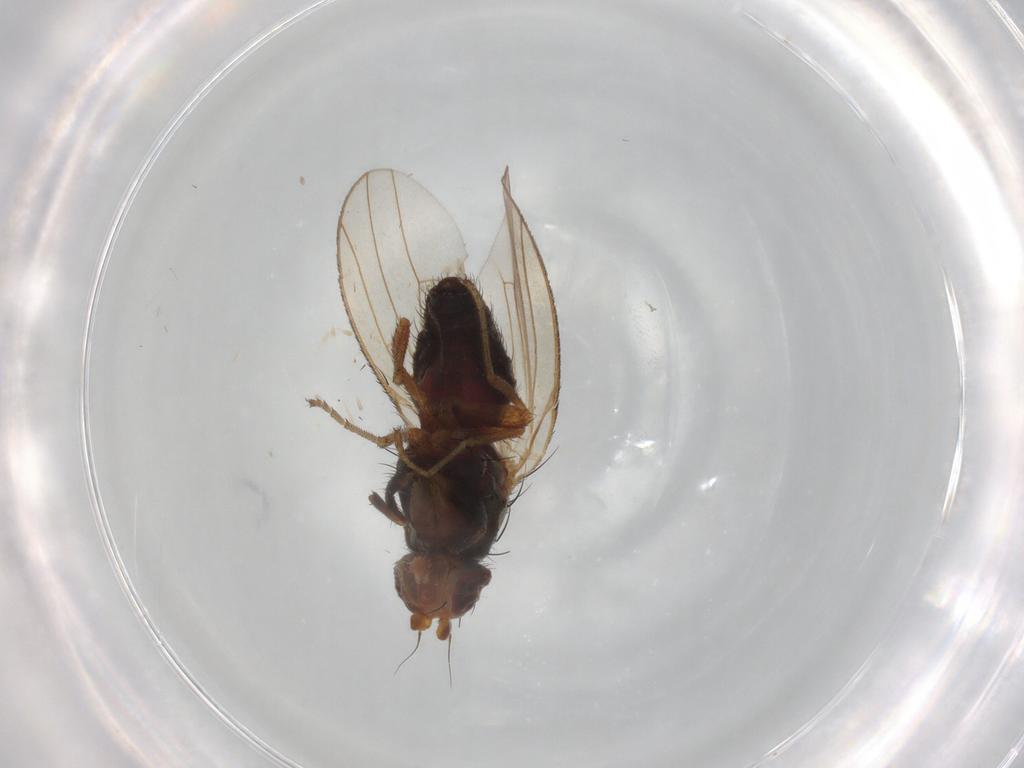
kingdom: Animalia
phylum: Arthropoda
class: Insecta
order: Diptera
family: Heleomyzidae
